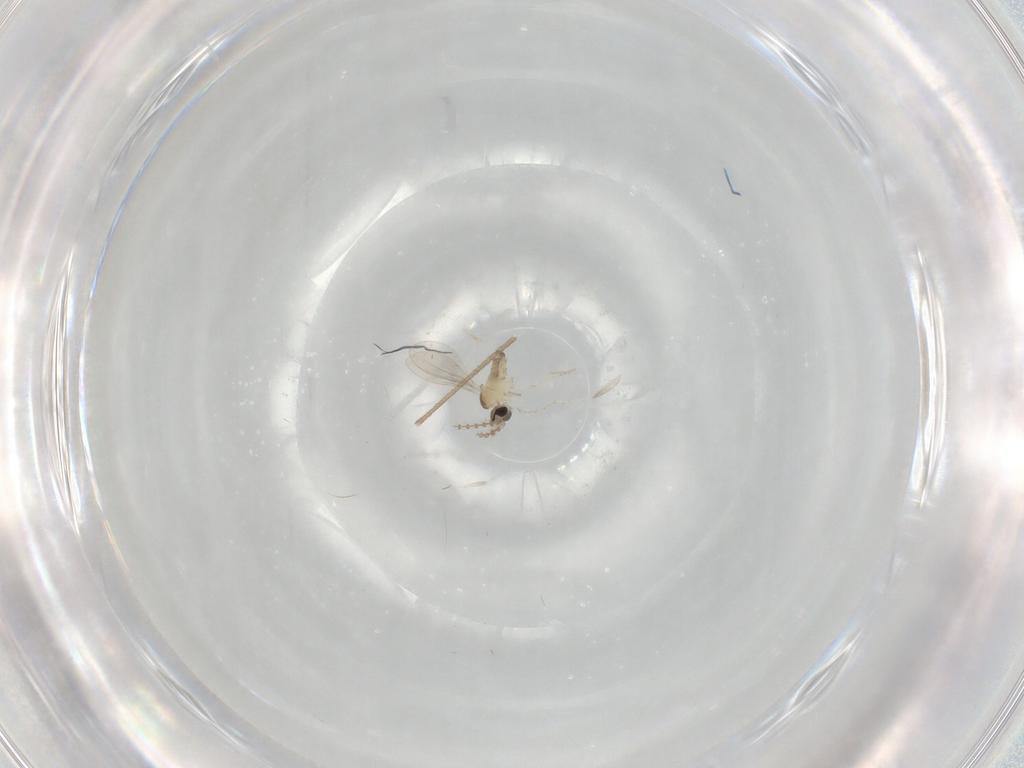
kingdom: Animalia
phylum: Arthropoda
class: Insecta
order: Diptera
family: Cecidomyiidae
